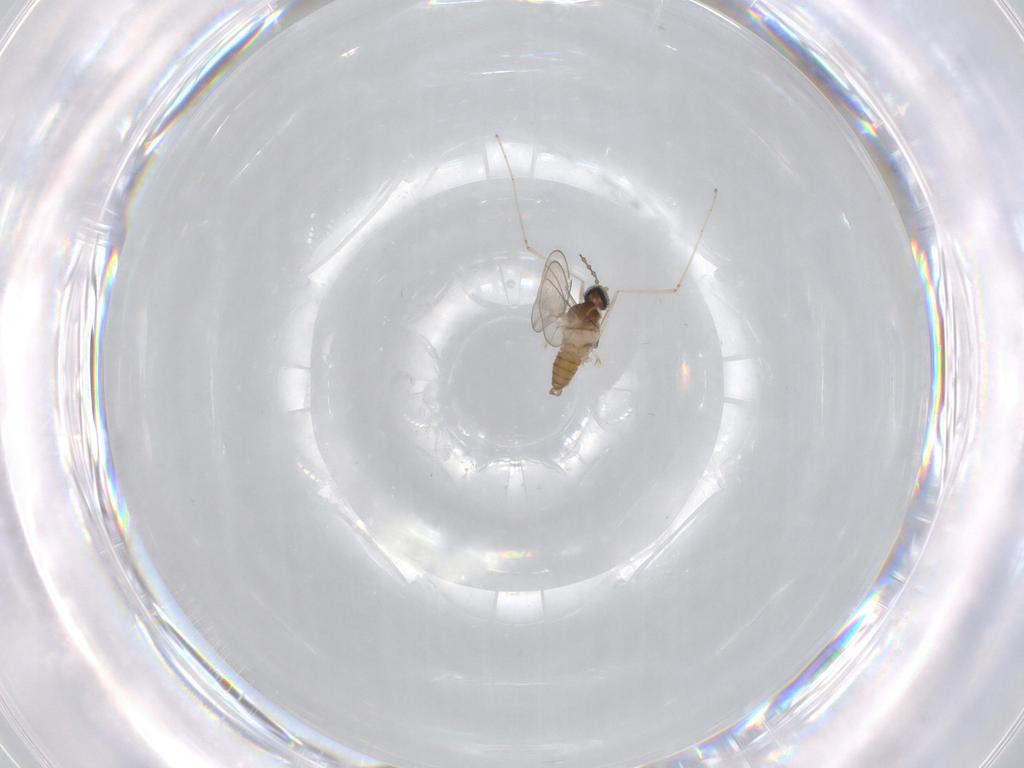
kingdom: Animalia
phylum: Arthropoda
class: Insecta
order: Diptera
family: Cecidomyiidae
